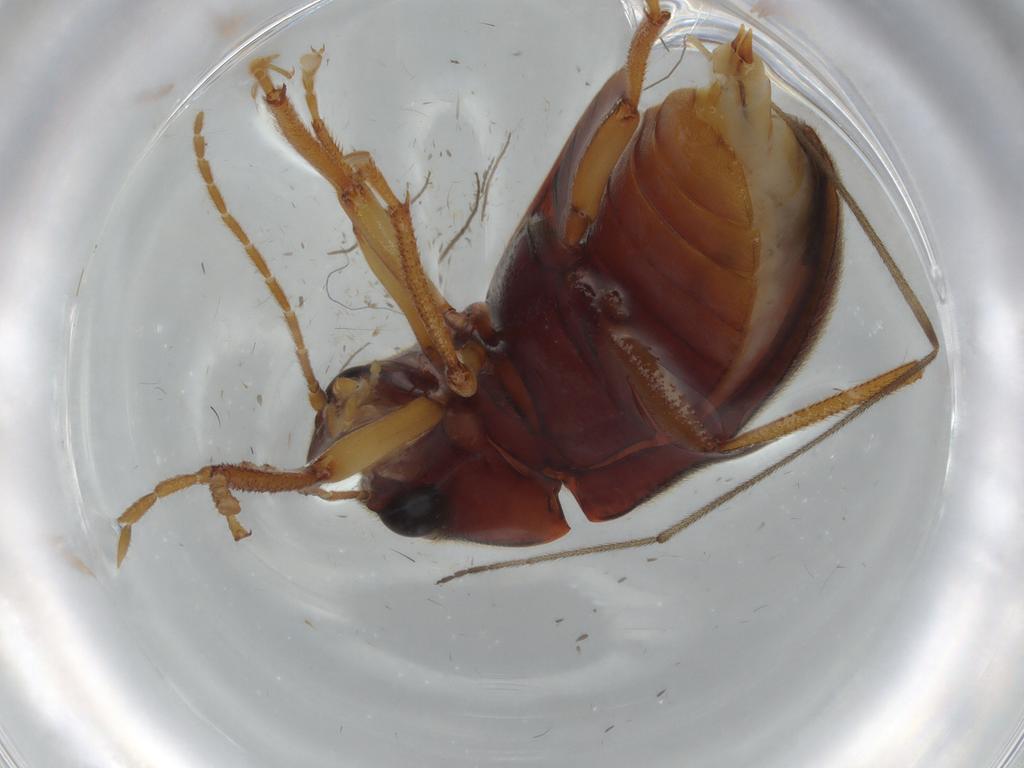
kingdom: Animalia
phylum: Arthropoda
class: Insecta
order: Coleoptera
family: Ptilodactylidae
